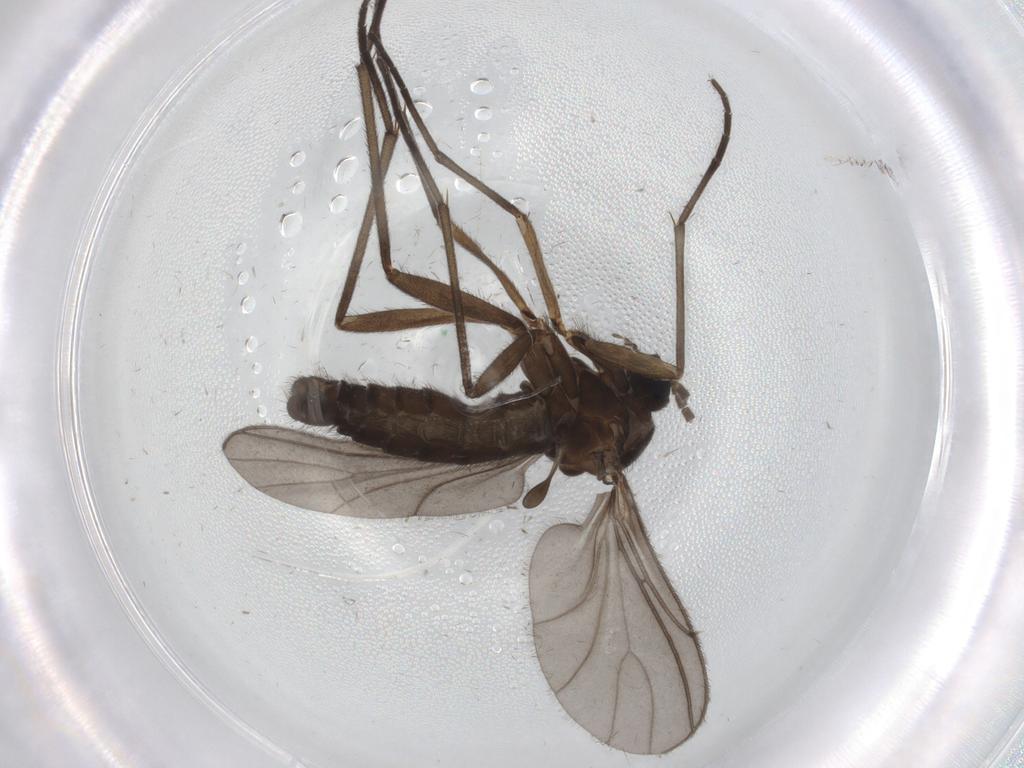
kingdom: Animalia
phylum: Arthropoda
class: Insecta
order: Diptera
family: Sciaridae
